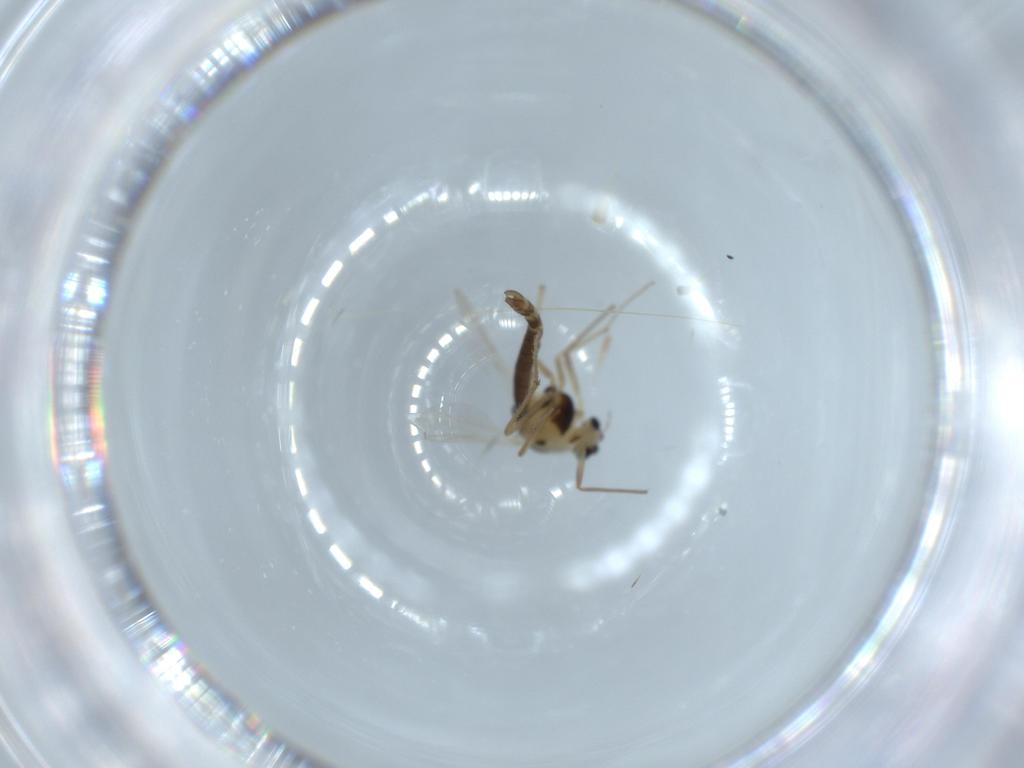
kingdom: Animalia
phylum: Arthropoda
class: Insecta
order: Diptera
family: Chironomidae
